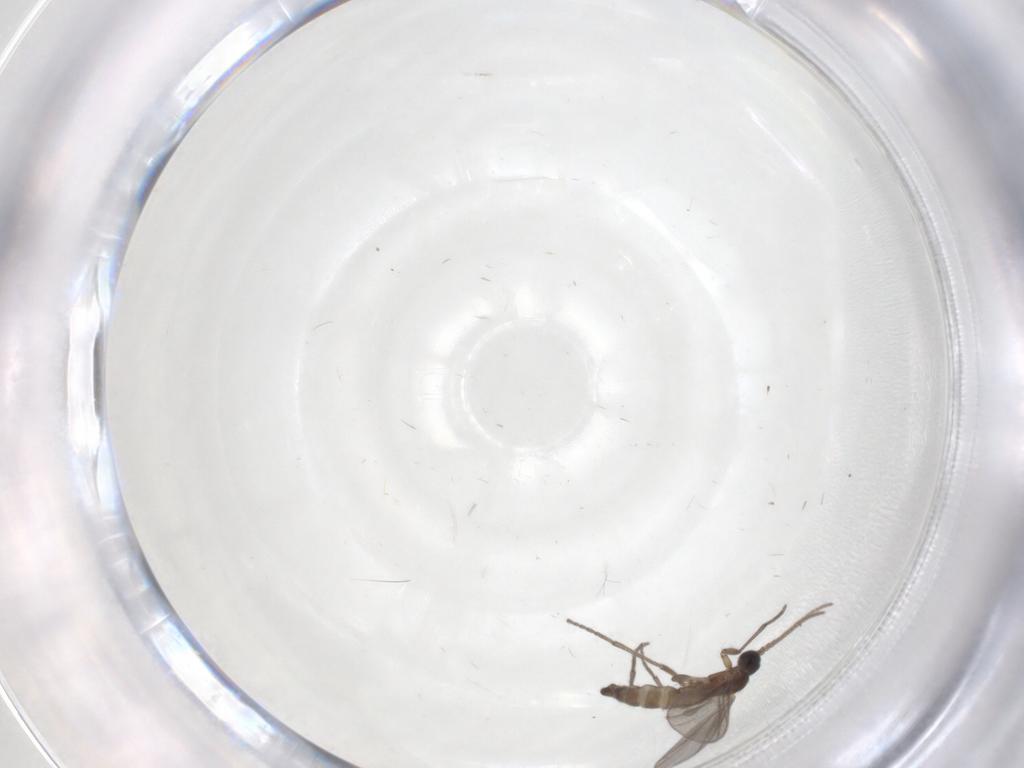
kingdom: Animalia
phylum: Arthropoda
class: Insecta
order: Diptera
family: Sciaridae
